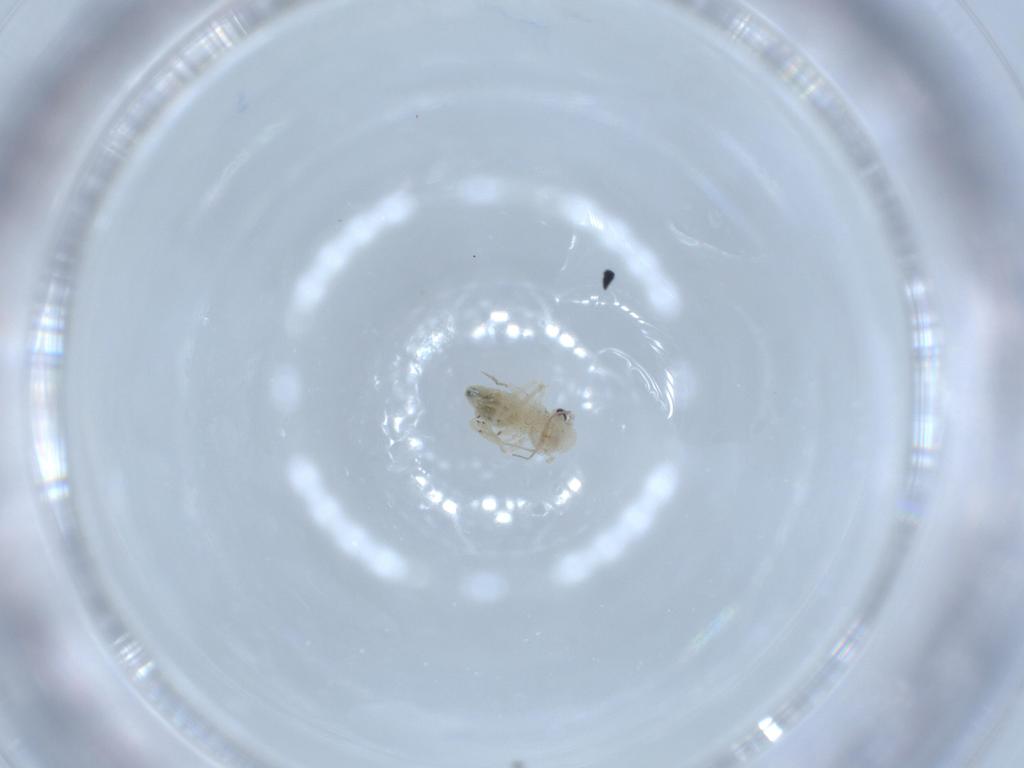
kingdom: Animalia
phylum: Arthropoda
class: Insecta
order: Psocodea
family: Caeciliusidae
